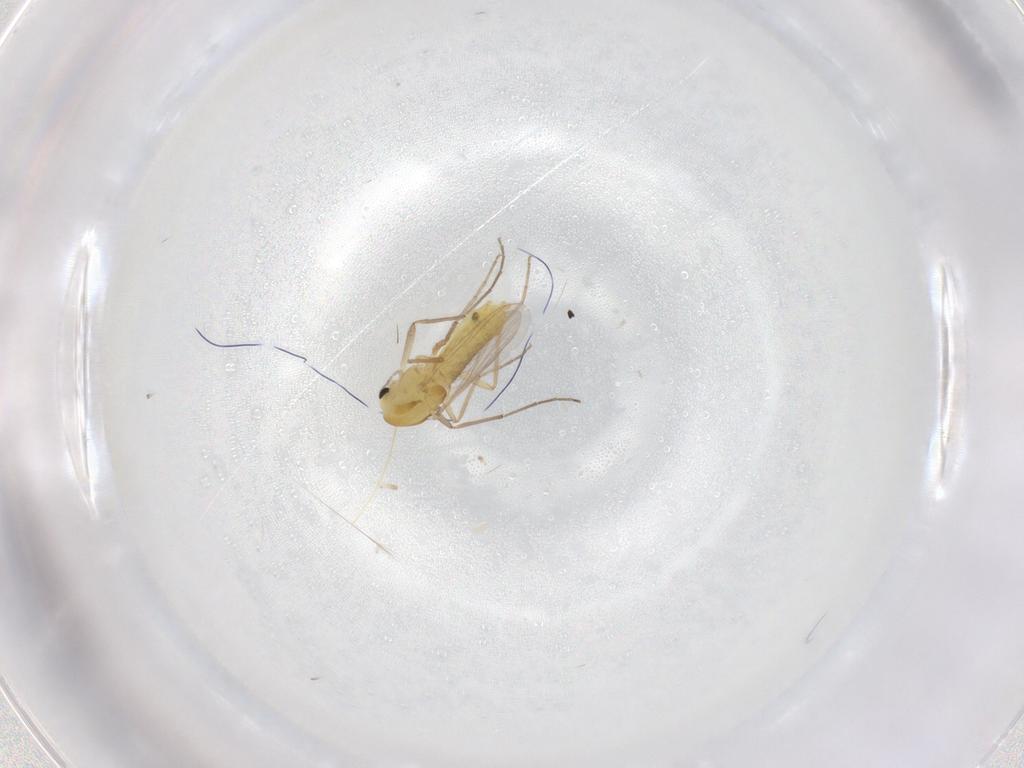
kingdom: Animalia
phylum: Arthropoda
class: Insecta
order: Diptera
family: Chironomidae
